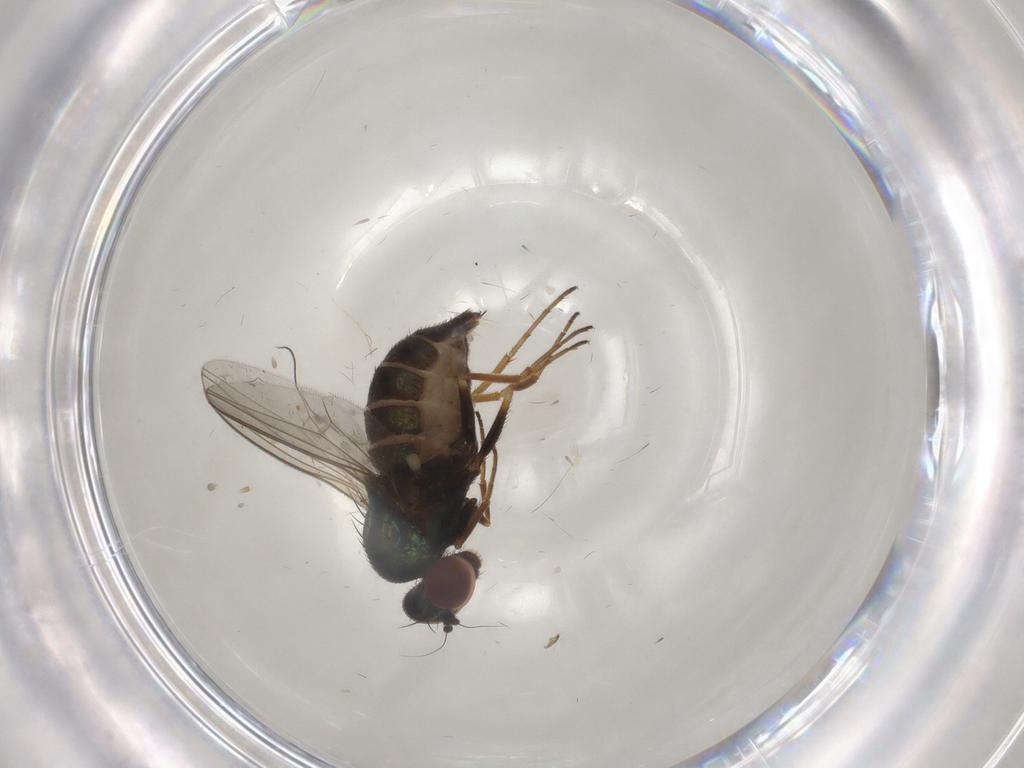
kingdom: Animalia
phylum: Arthropoda
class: Insecta
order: Diptera
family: Dolichopodidae
